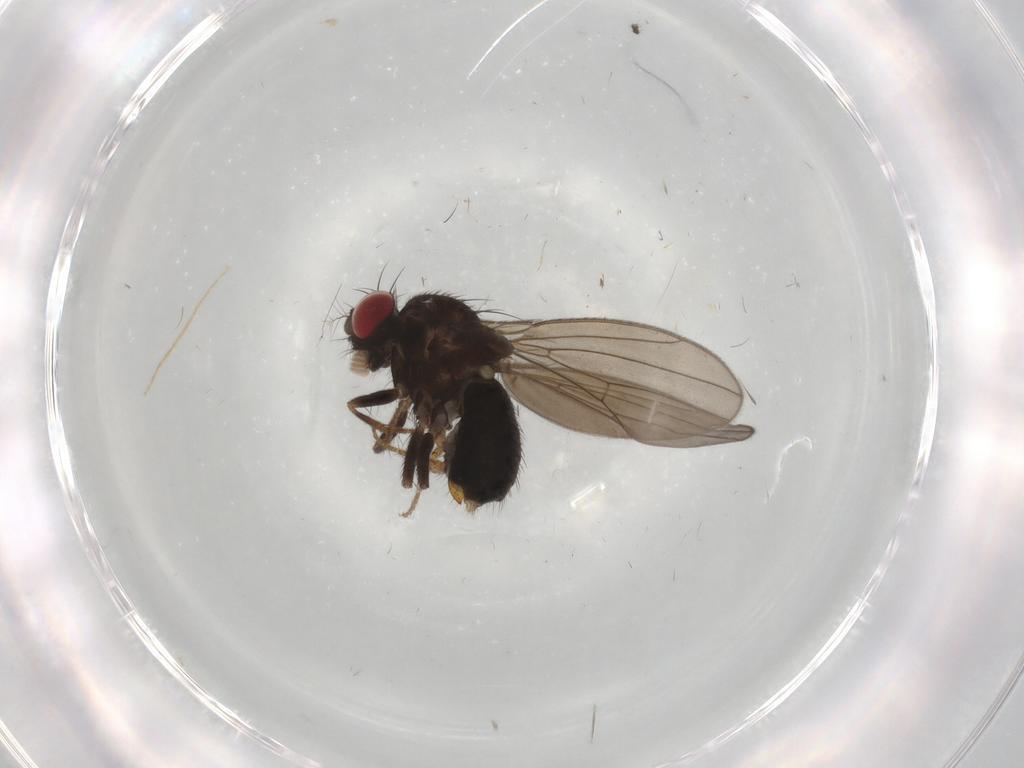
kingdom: Animalia
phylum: Arthropoda
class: Insecta
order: Diptera
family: Drosophilidae
